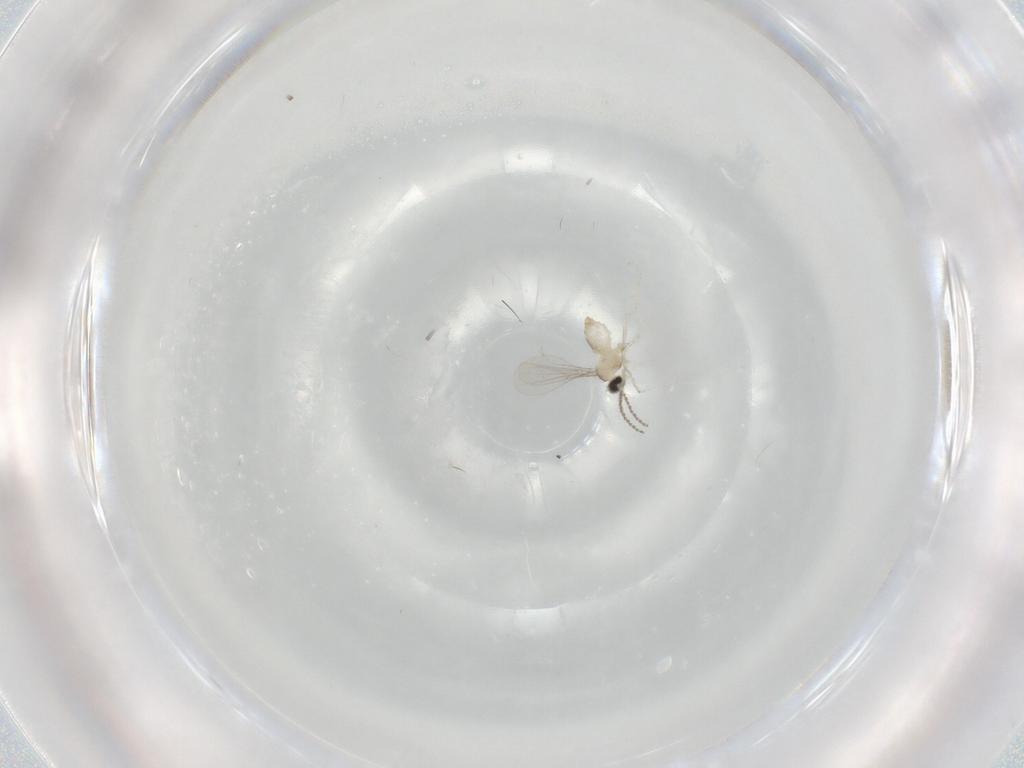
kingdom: Animalia
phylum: Arthropoda
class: Insecta
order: Diptera
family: Cecidomyiidae
